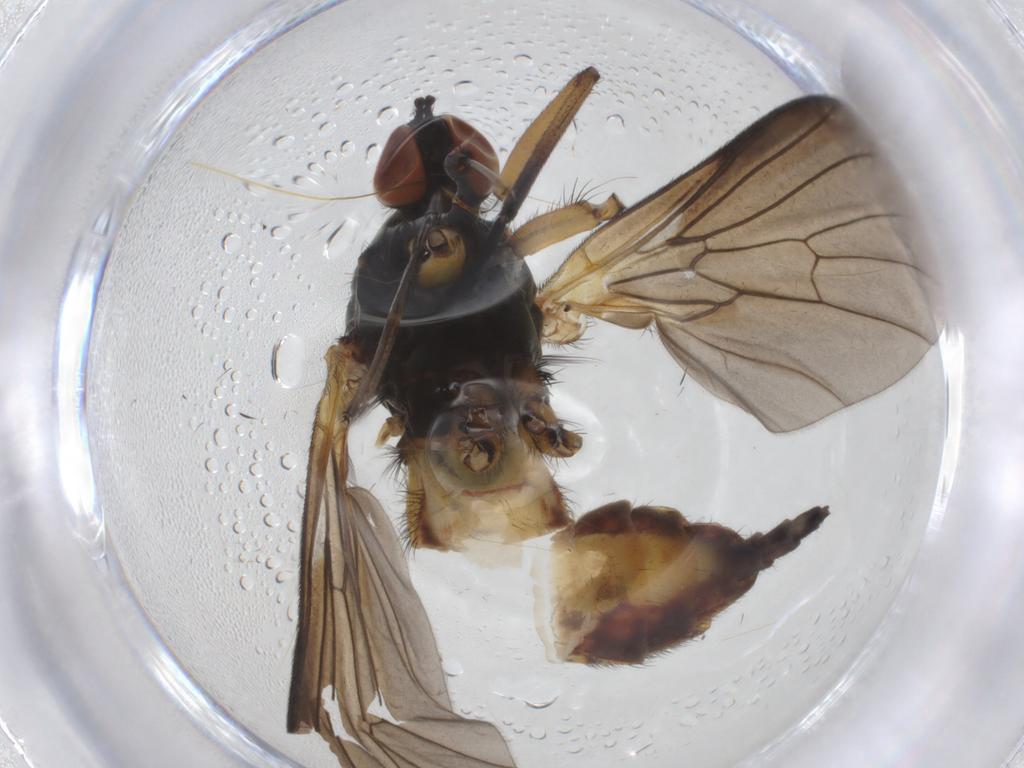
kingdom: Animalia
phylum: Arthropoda
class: Insecta
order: Diptera
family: Empididae
